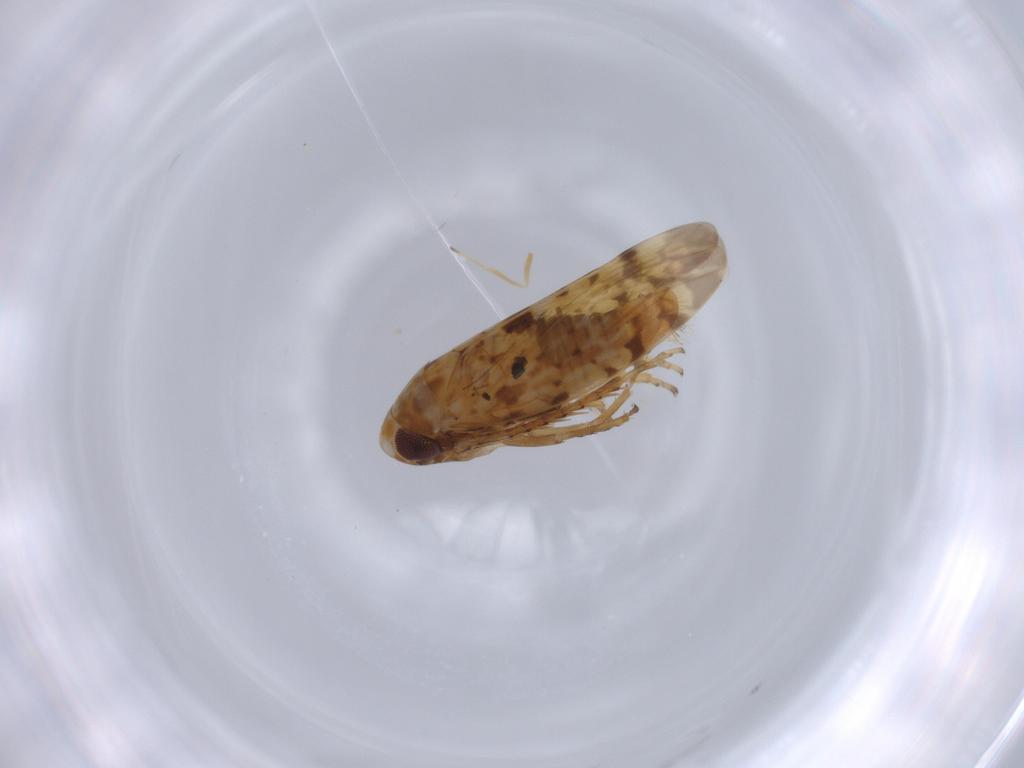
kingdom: Animalia
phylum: Arthropoda
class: Insecta
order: Hemiptera
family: Cicadellidae
